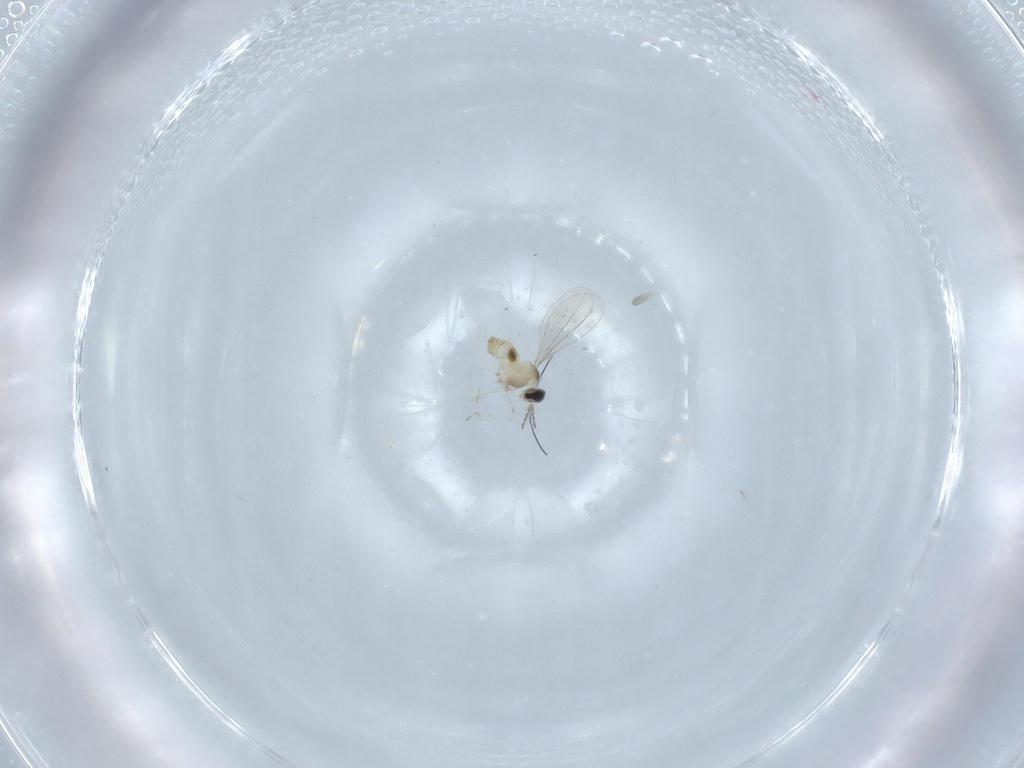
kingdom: Animalia
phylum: Arthropoda
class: Insecta
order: Diptera
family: Cecidomyiidae
